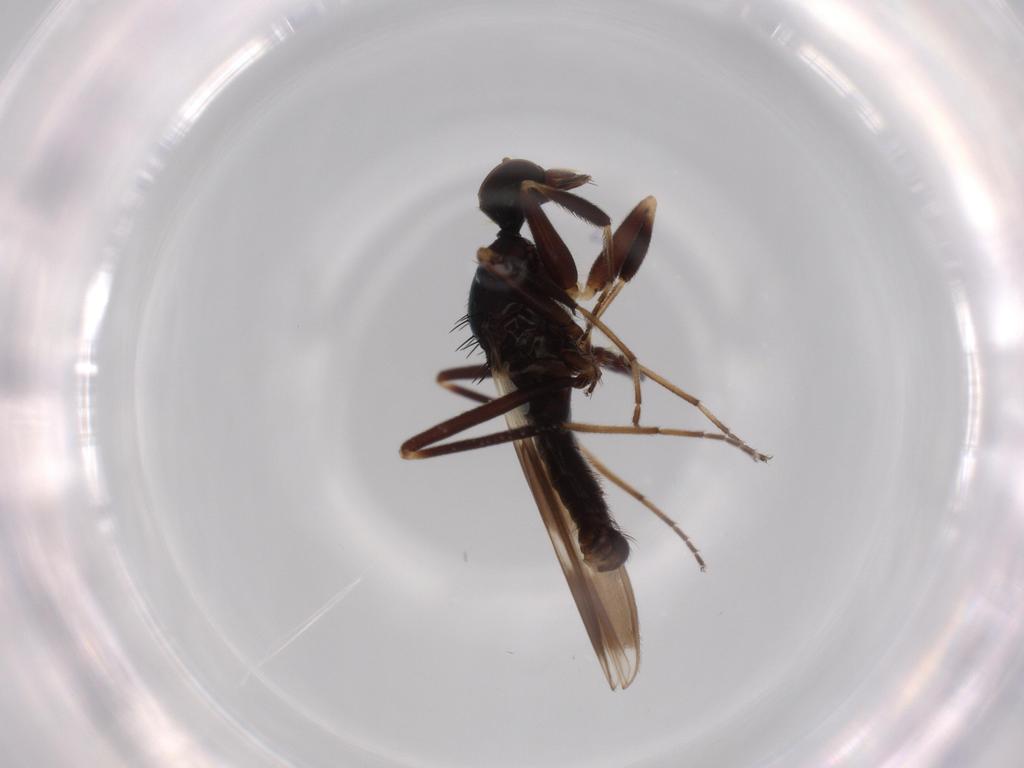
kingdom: Animalia
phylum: Arthropoda
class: Insecta
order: Diptera
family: Hybotidae
